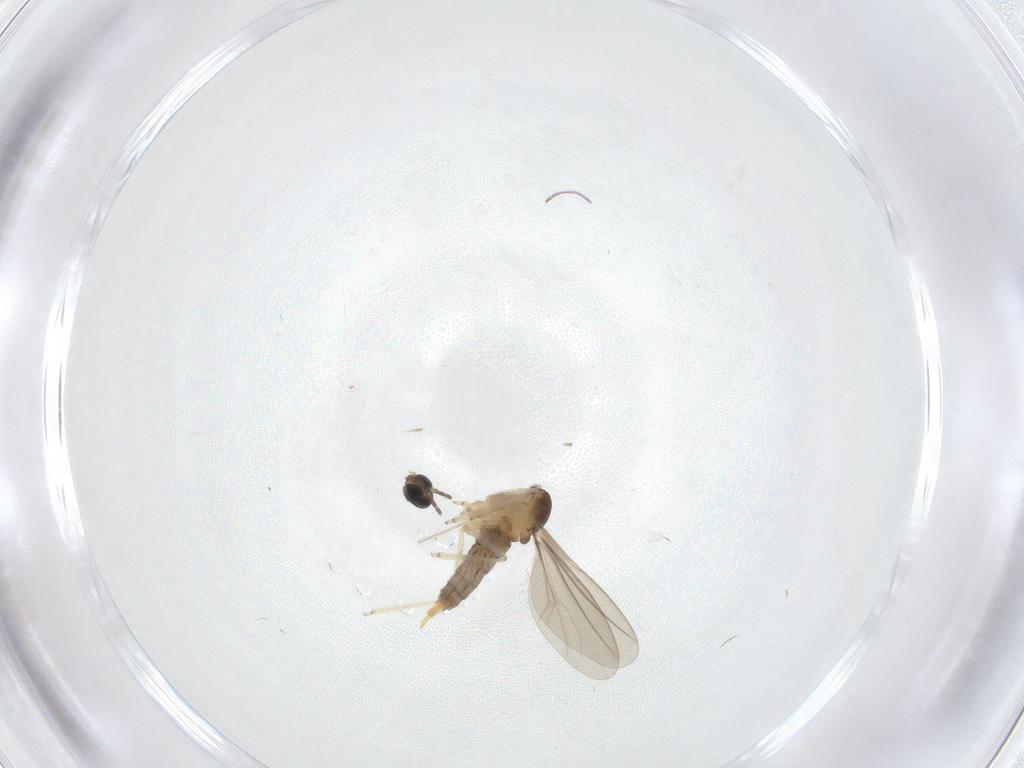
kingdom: Animalia
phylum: Arthropoda
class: Insecta
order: Diptera
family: Cecidomyiidae
